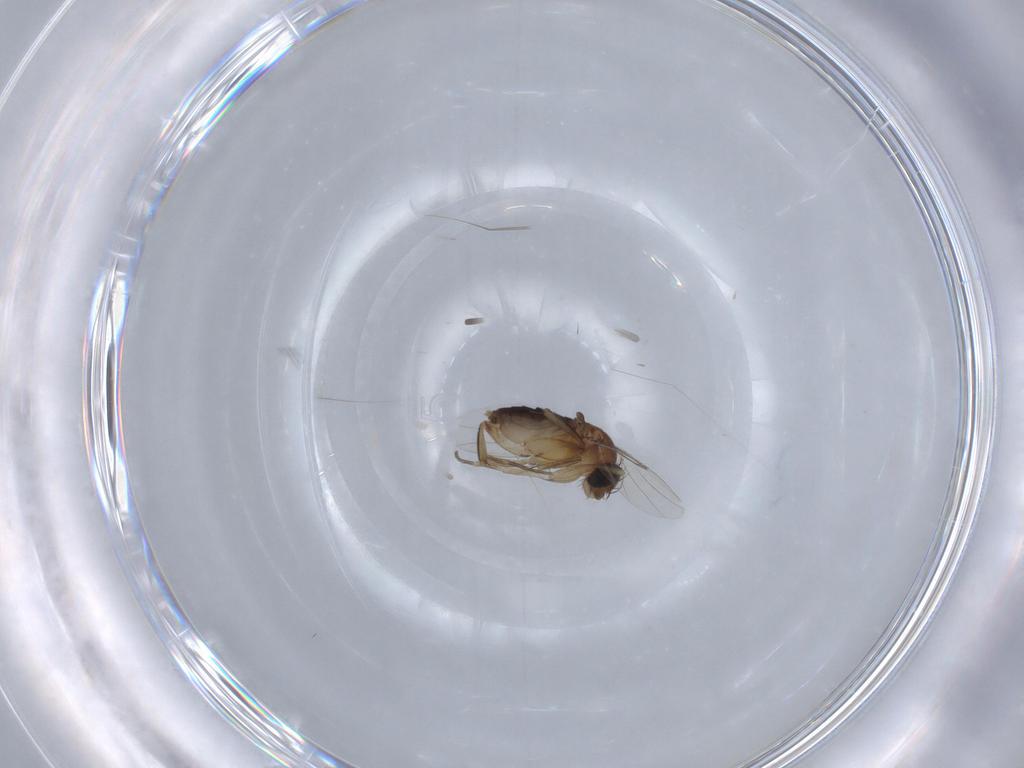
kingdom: Animalia
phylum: Arthropoda
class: Insecta
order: Diptera
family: Phoridae
